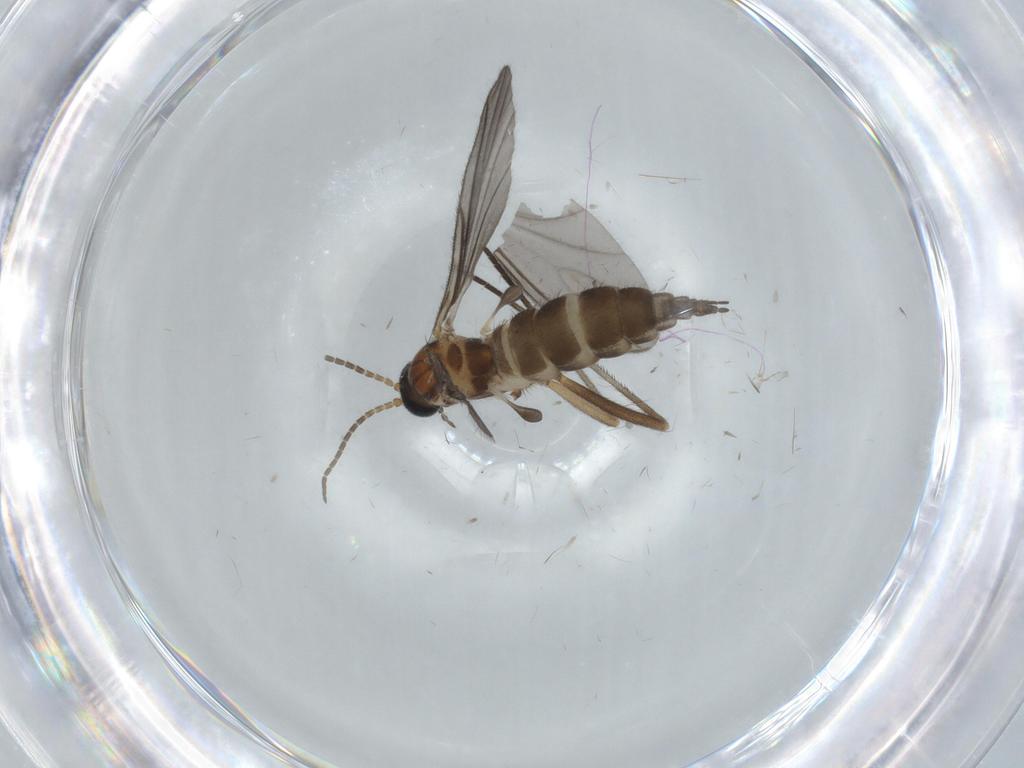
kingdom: Animalia
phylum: Arthropoda
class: Insecta
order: Diptera
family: Sciaridae
